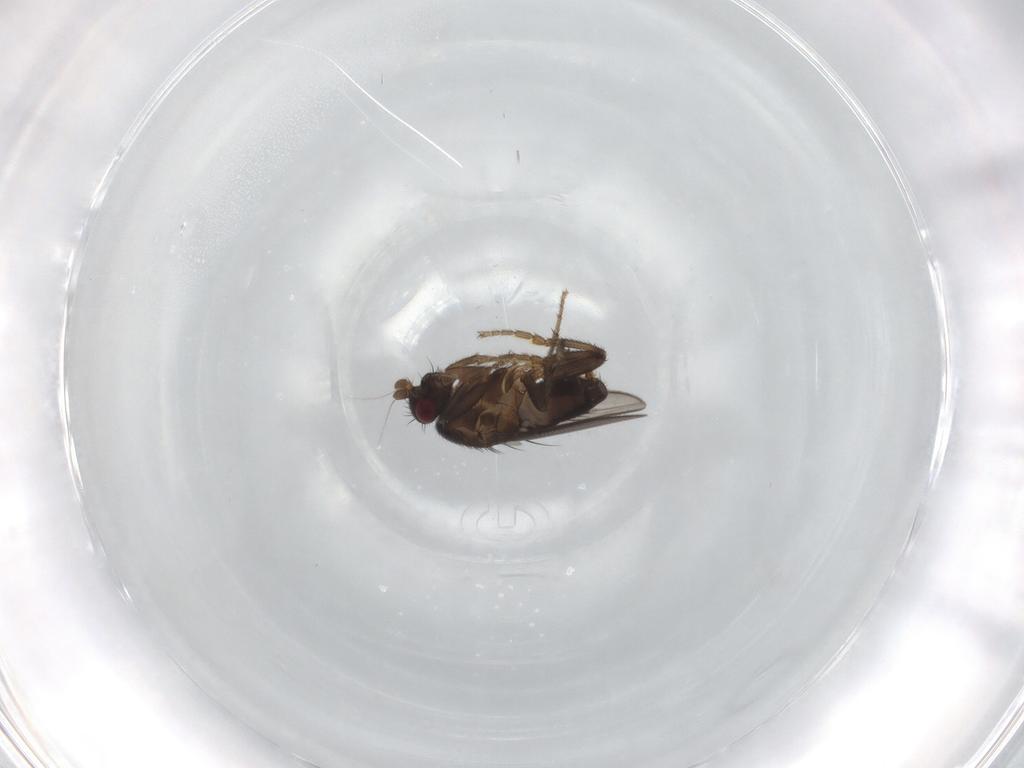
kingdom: Animalia
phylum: Arthropoda
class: Insecta
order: Diptera
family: Sphaeroceridae
